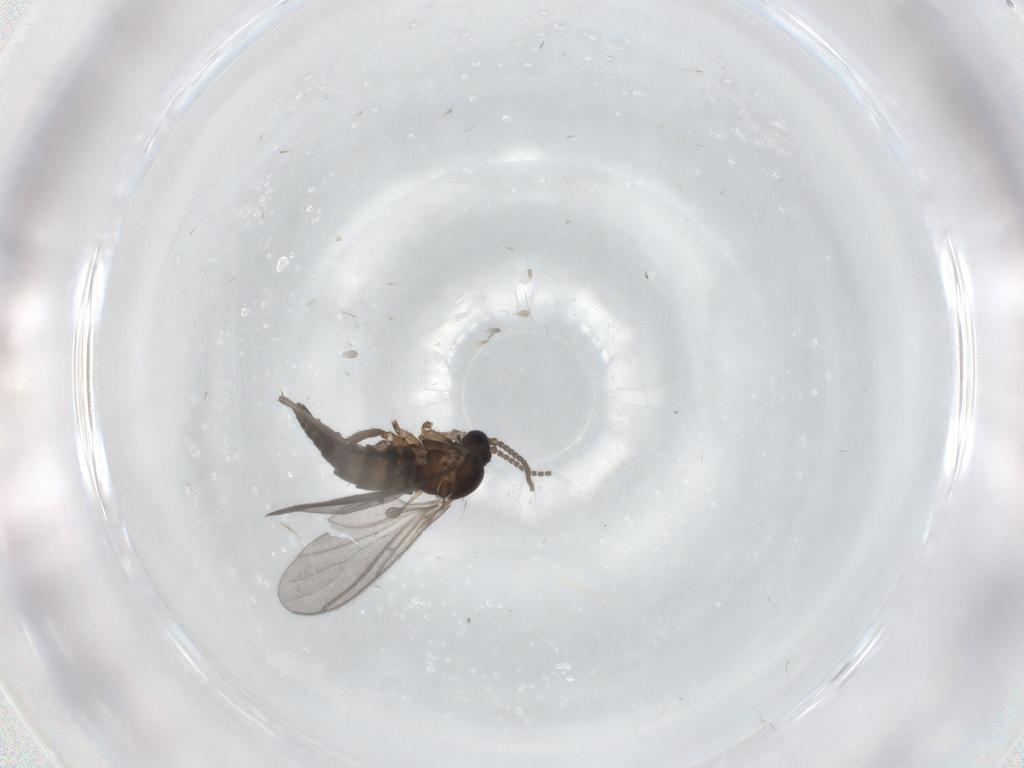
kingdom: Animalia
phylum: Arthropoda
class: Insecta
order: Diptera
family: Sciaridae
